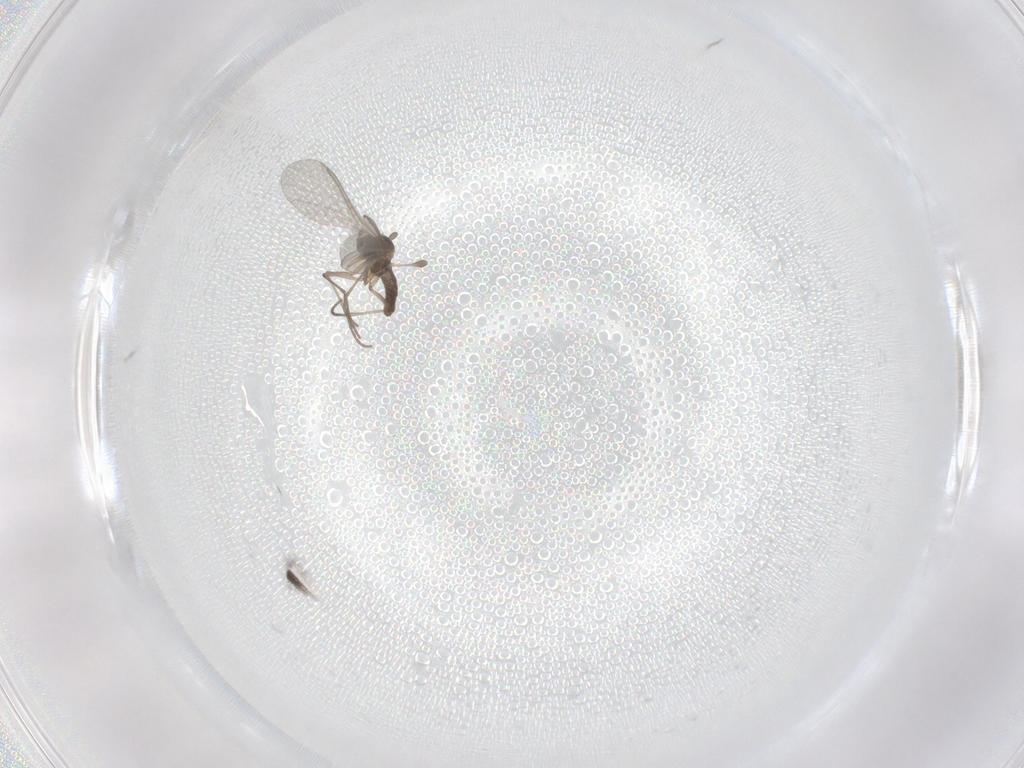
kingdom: Animalia
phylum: Arthropoda
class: Insecta
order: Diptera
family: Sciaridae
